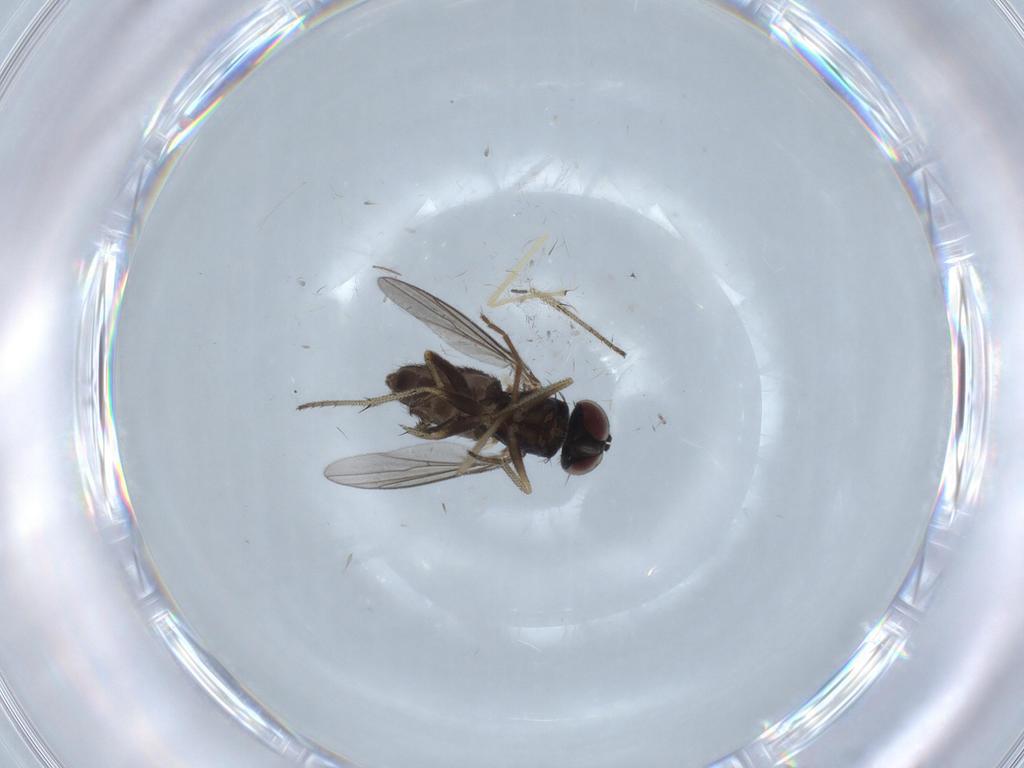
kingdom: Animalia
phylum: Arthropoda
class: Insecta
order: Diptera
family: Dolichopodidae
